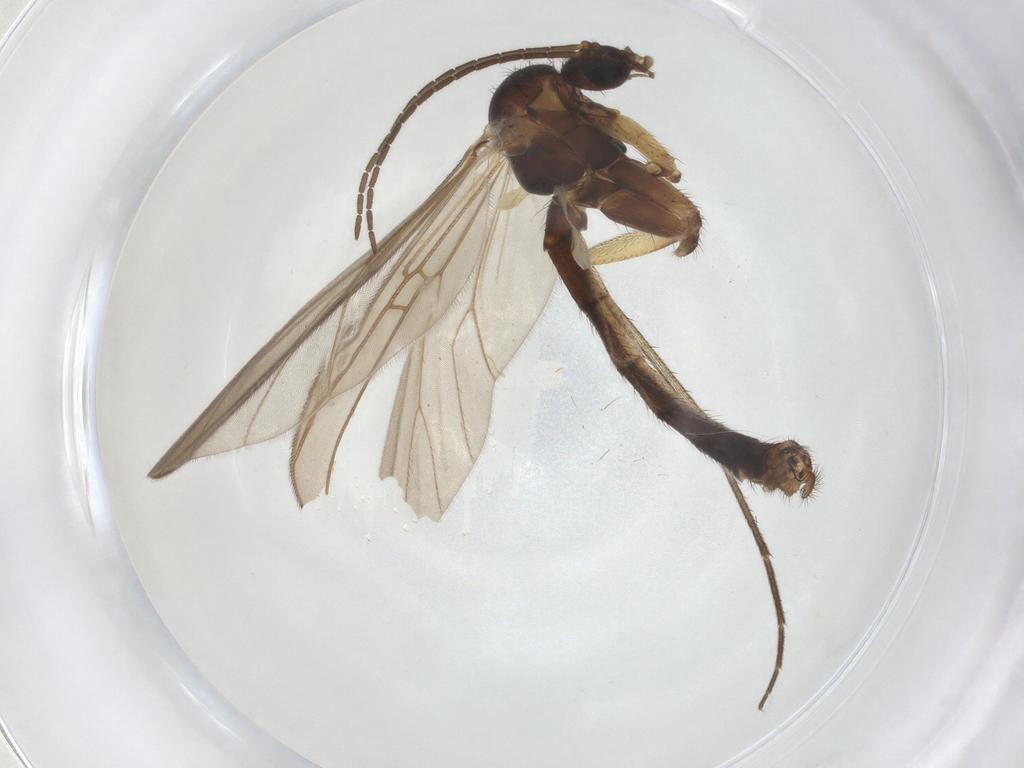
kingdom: Animalia
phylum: Arthropoda
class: Insecta
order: Diptera
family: Mycetophilidae
